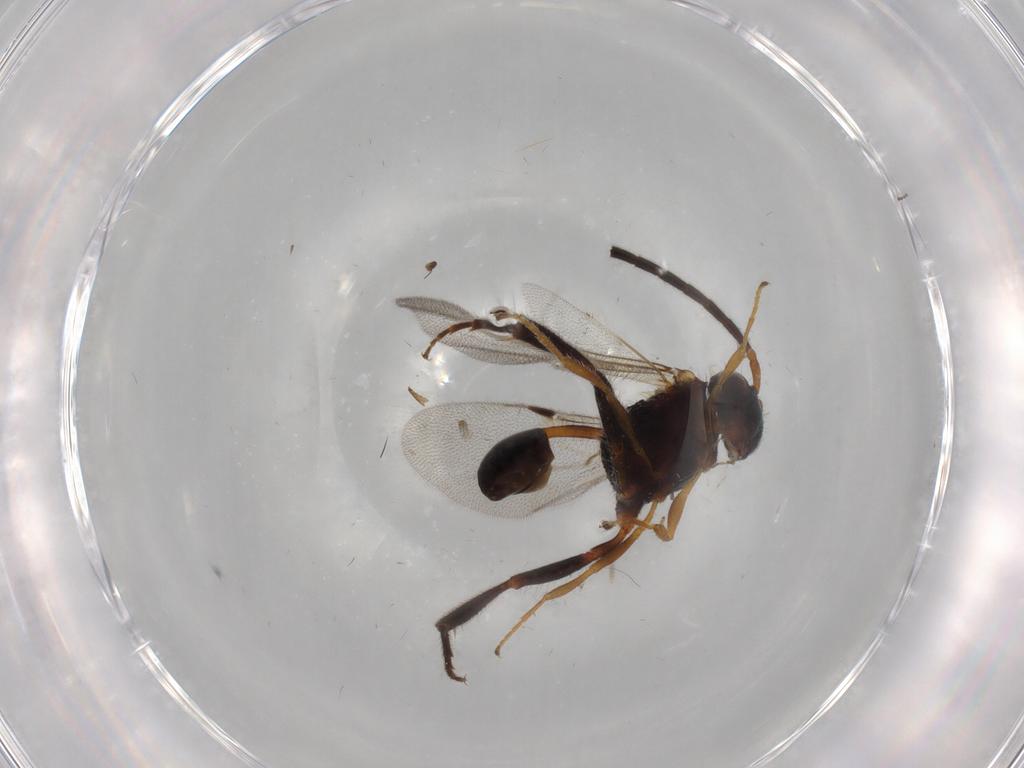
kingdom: Animalia
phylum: Arthropoda
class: Insecta
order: Hymenoptera
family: Evaniidae
